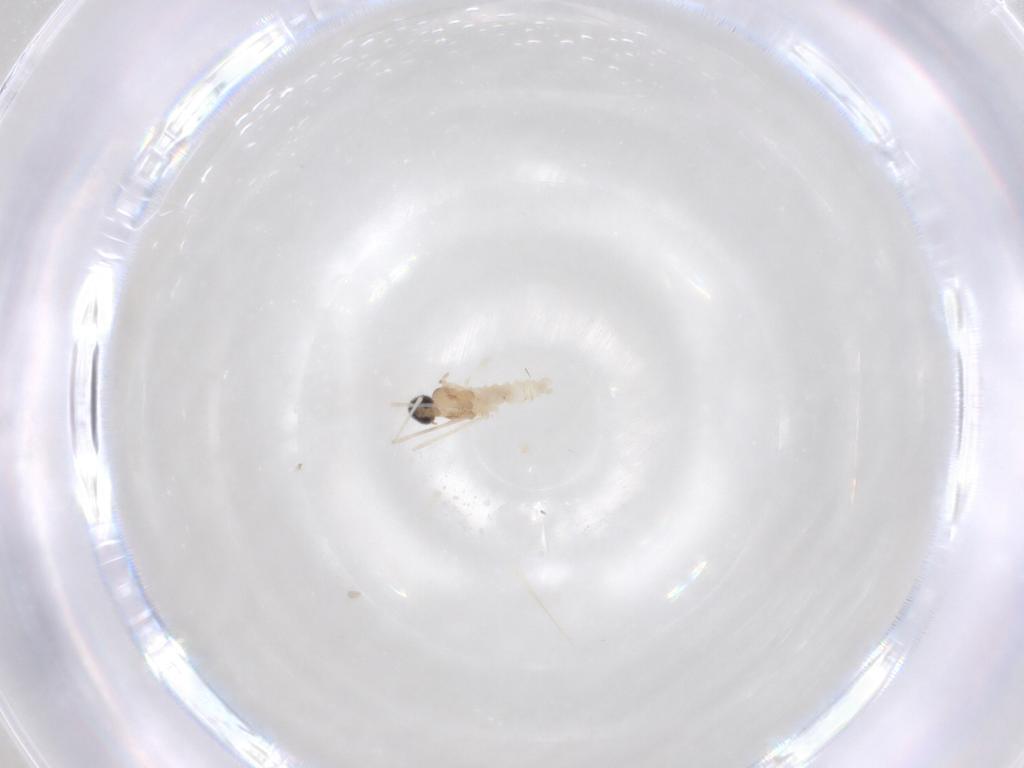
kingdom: Animalia
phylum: Arthropoda
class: Insecta
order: Diptera
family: Cecidomyiidae
